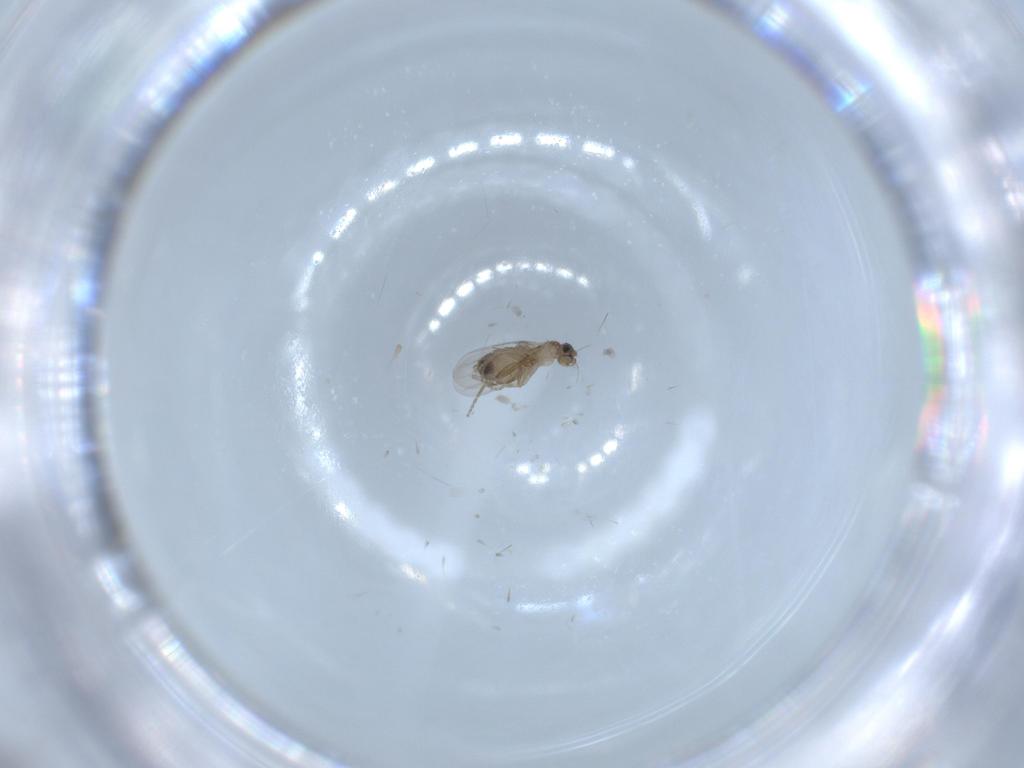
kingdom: Animalia
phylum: Arthropoda
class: Insecta
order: Diptera
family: Phoridae
